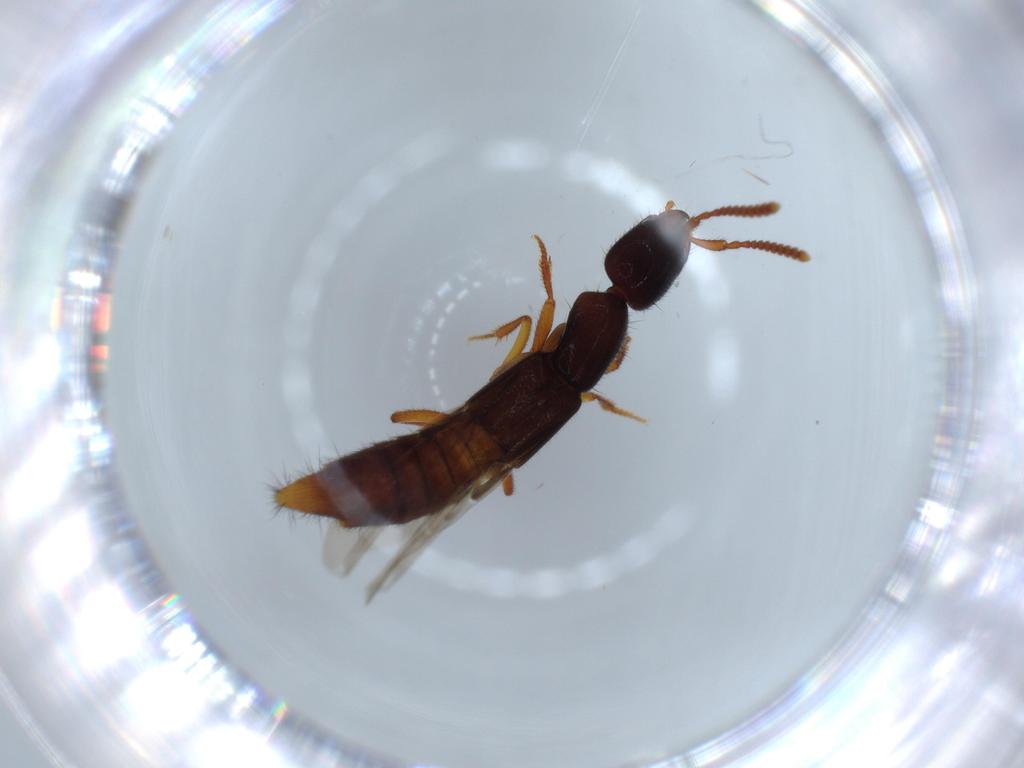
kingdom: Animalia
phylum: Arthropoda
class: Insecta
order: Coleoptera
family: Staphylinidae
